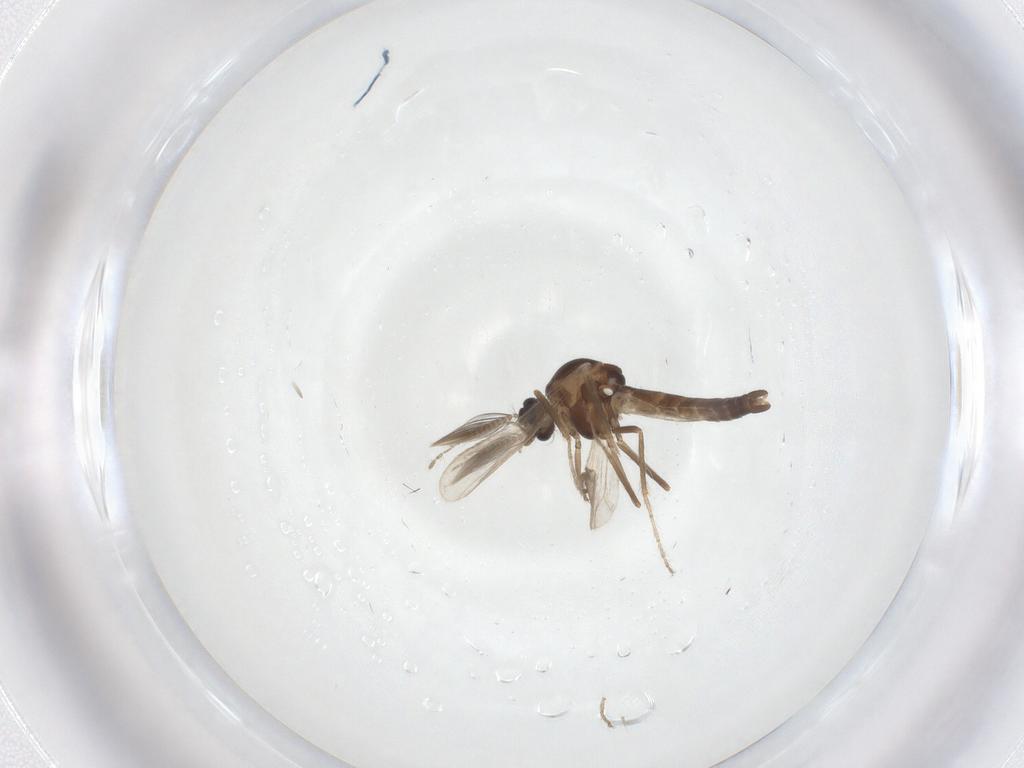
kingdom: Animalia
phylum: Arthropoda
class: Insecta
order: Diptera
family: Ceratopogonidae
